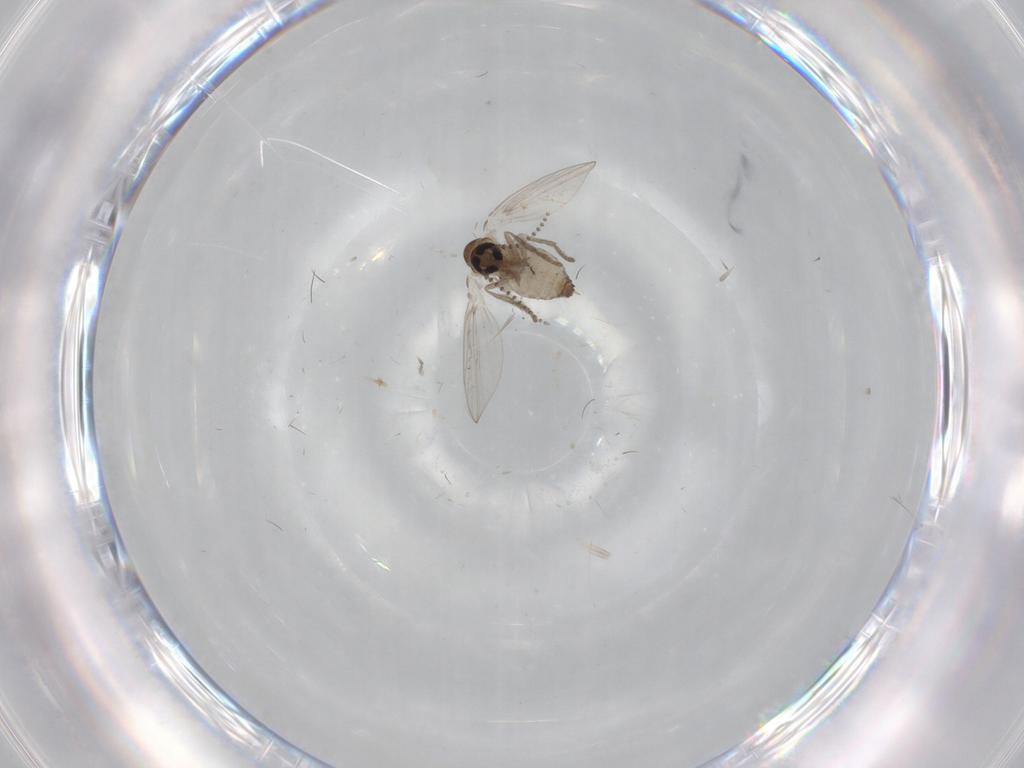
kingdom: Animalia
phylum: Arthropoda
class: Insecta
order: Diptera
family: Psychodidae
